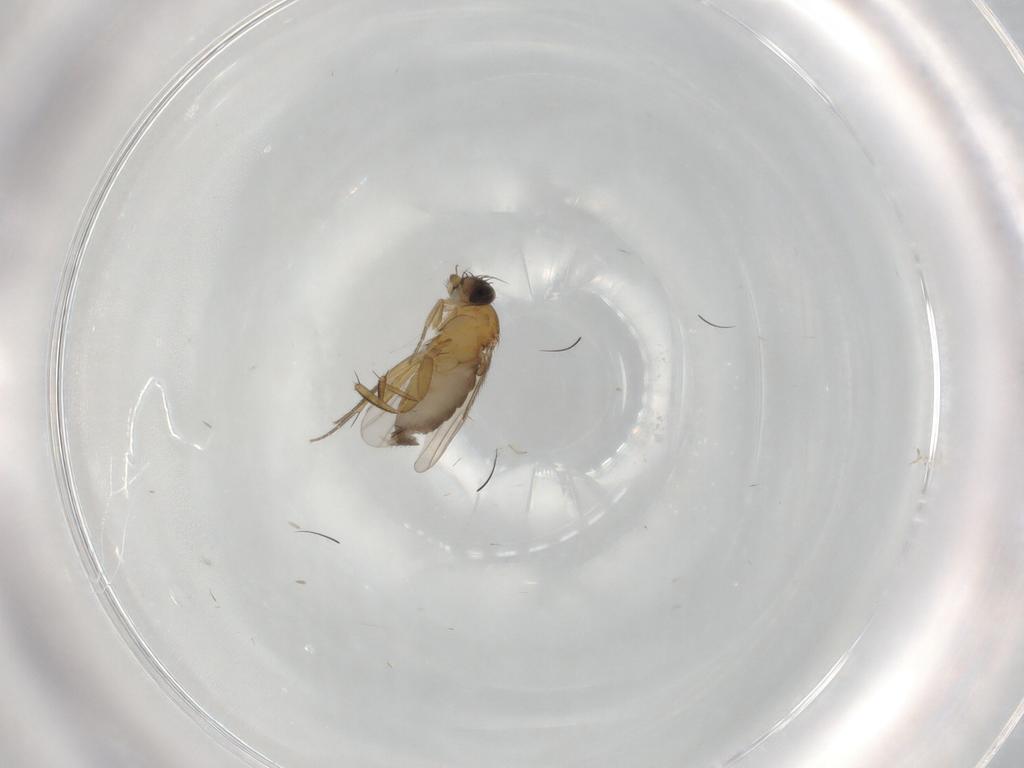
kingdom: Animalia
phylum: Arthropoda
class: Insecta
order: Diptera
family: Phoridae
